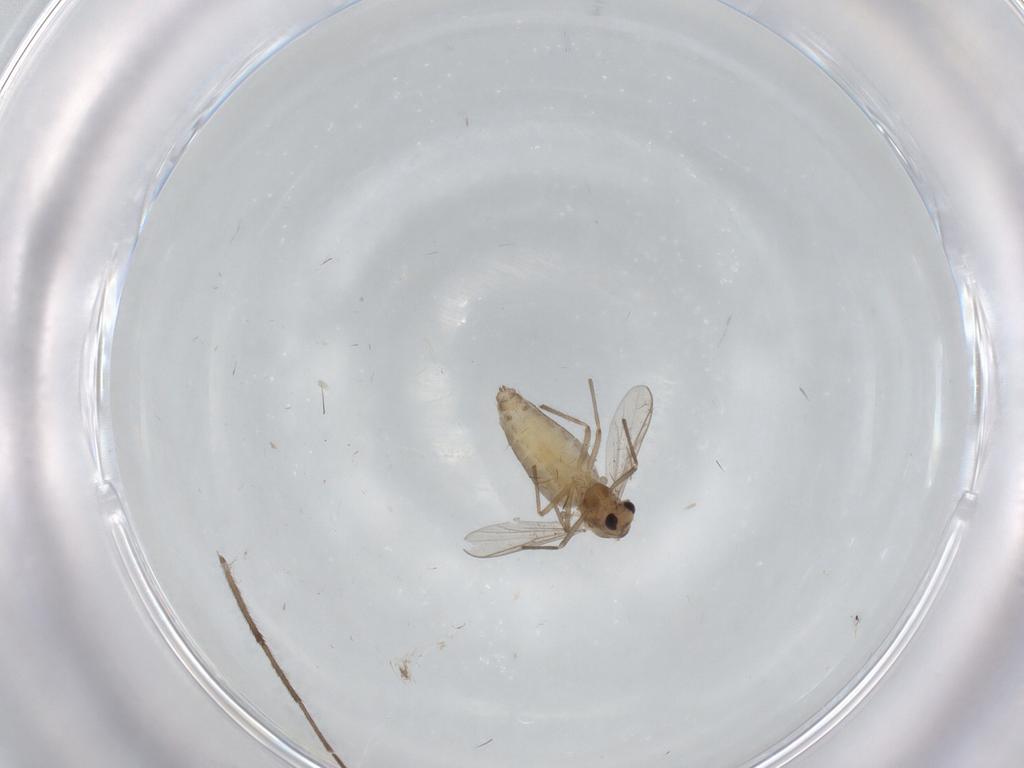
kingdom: Animalia
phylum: Arthropoda
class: Insecta
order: Diptera
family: Chironomidae
